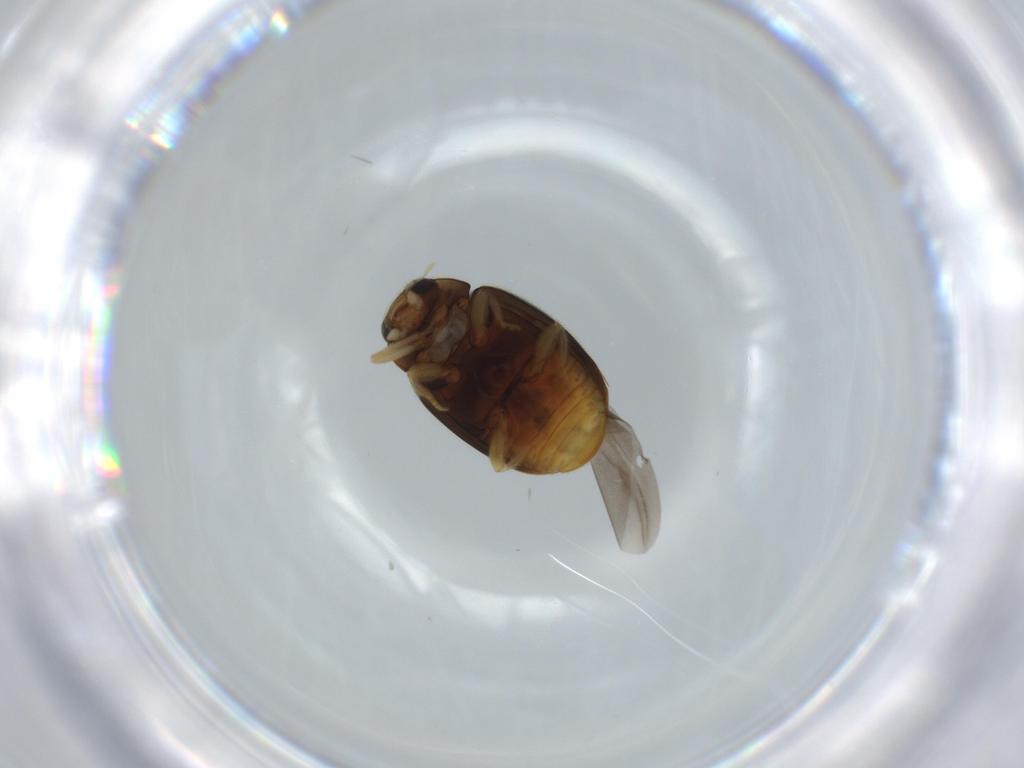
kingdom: Animalia
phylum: Arthropoda
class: Insecta
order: Coleoptera
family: Coccinellidae
